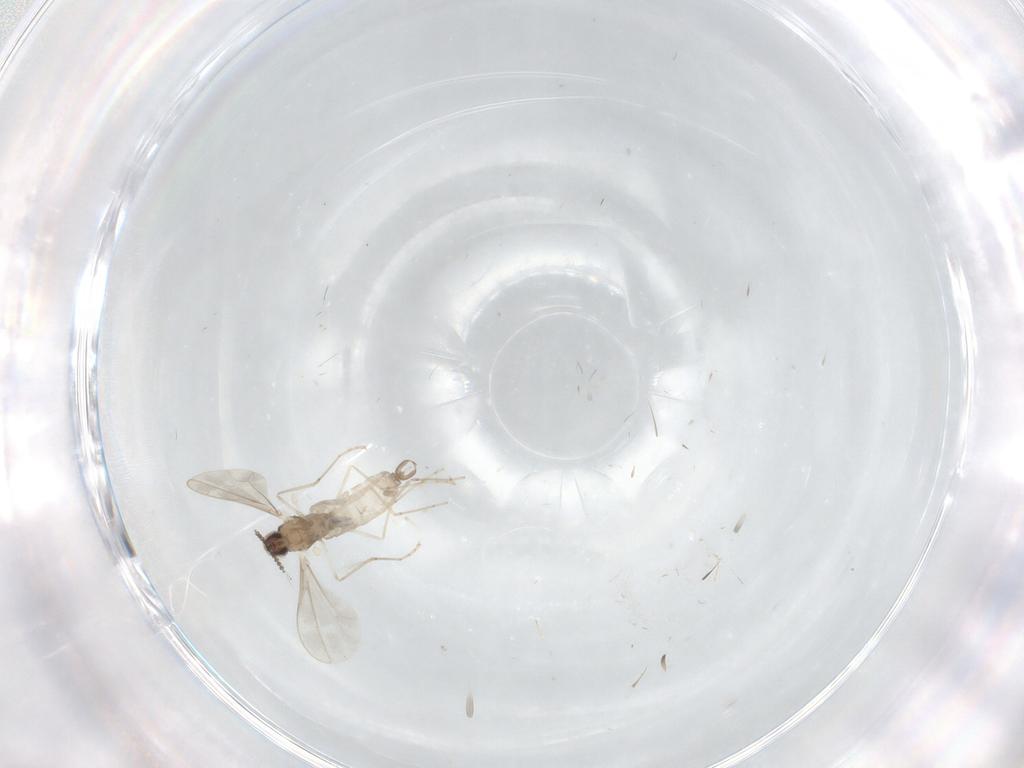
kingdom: Animalia
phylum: Arthropoda
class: Insecta
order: Diptera
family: Cecidomyiidae
